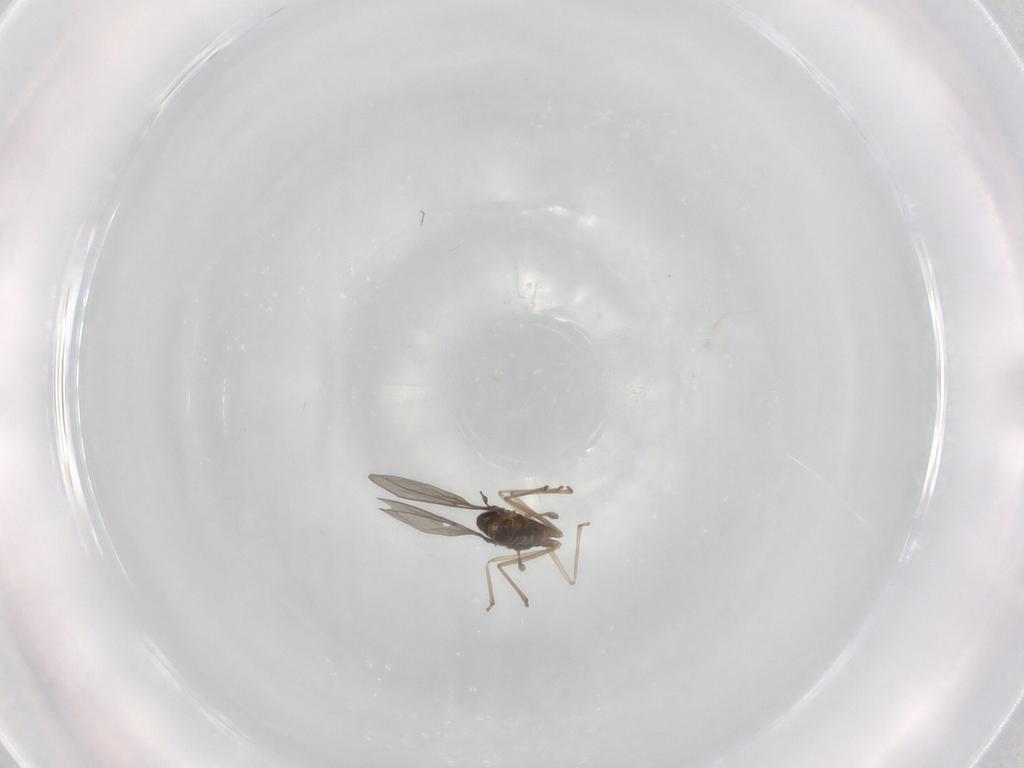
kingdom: Animalia
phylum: Arthropoda
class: Insecta
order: Diptera
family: Cecidomyiidae
